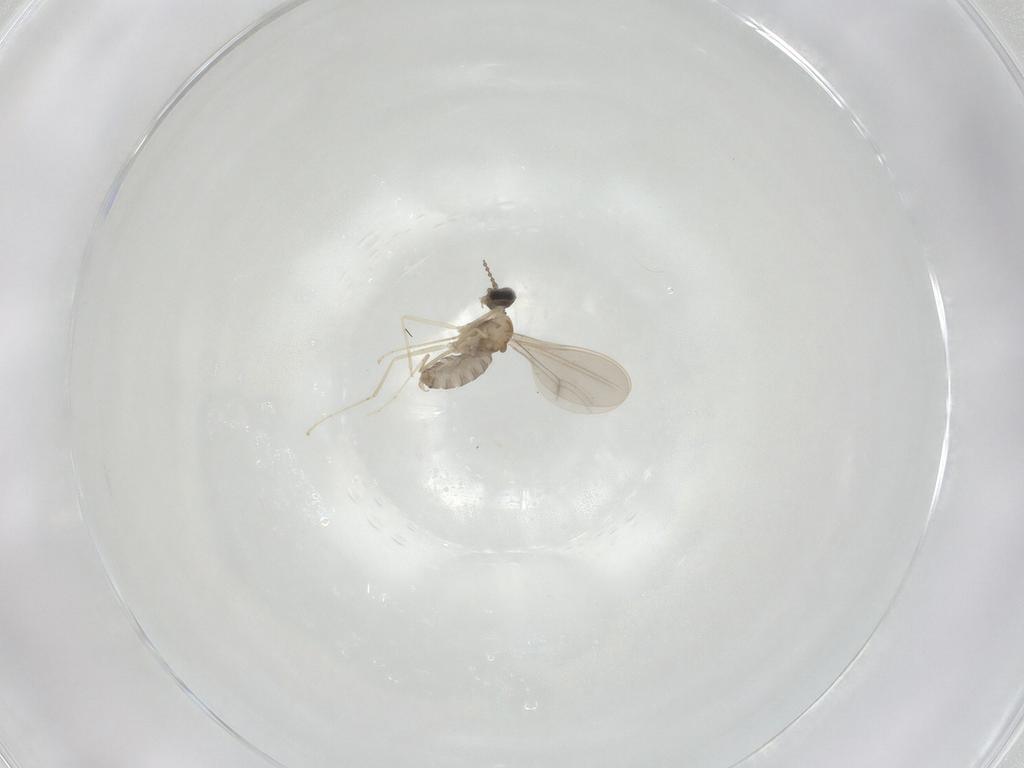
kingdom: Animalia
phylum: Arthropoda
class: Insecta
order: Diptera
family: Cecidomyiidae
